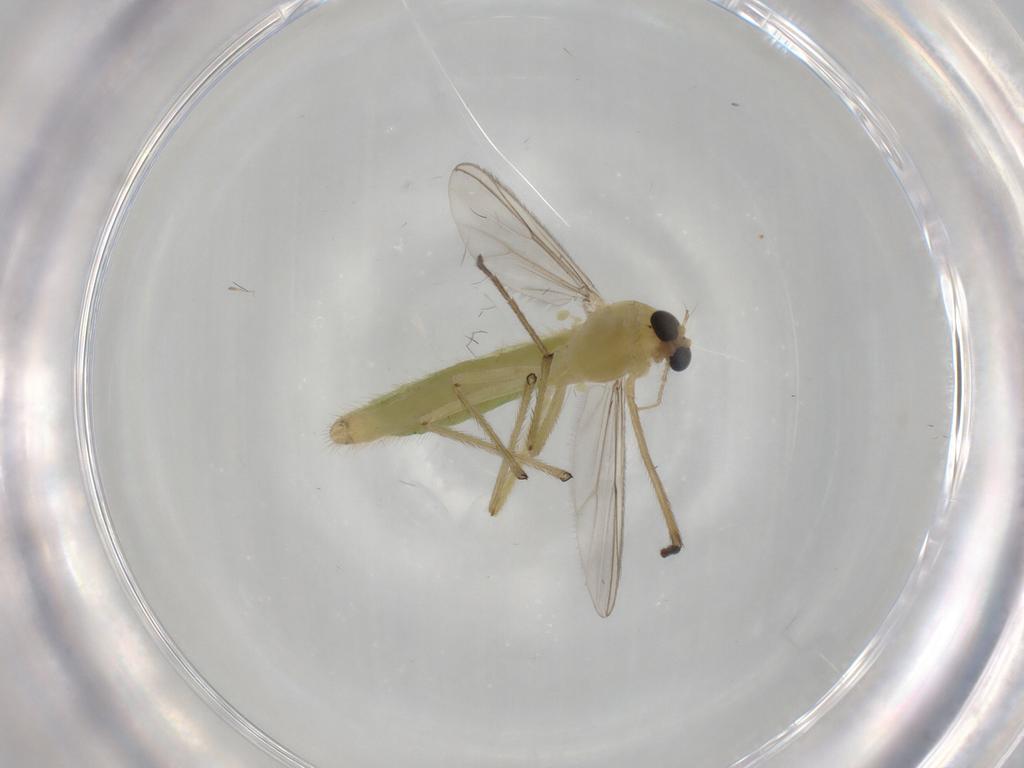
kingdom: Animalia
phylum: Arthropoda
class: Insecta
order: Diptera
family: Chironomidae
